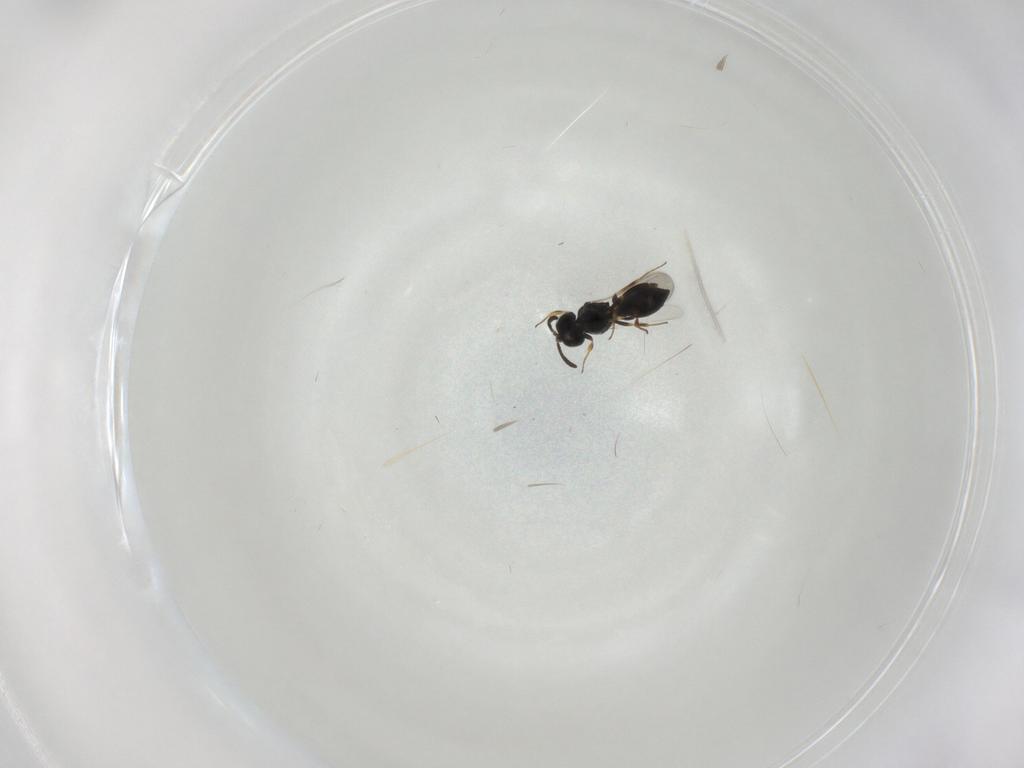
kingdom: Animalia
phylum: Arthropoda
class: Insecta
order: Hymenoptera
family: Scelionidae
